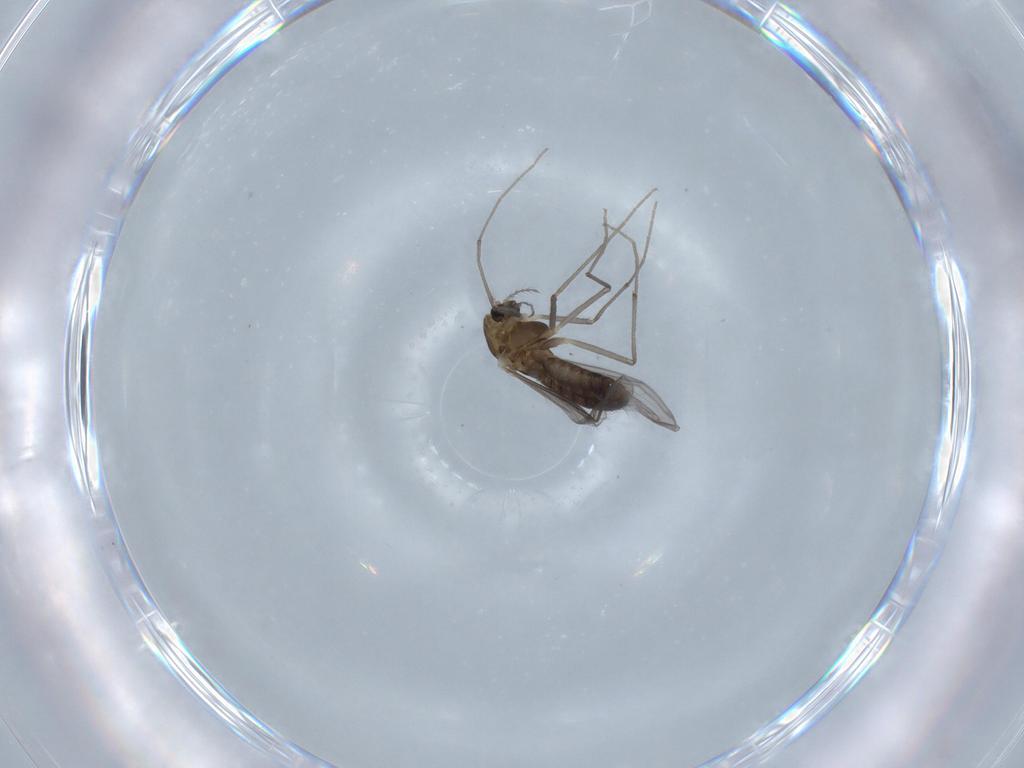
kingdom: Animalia
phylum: Arthropoda
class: Insecta
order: Diptera
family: Chironomidae
